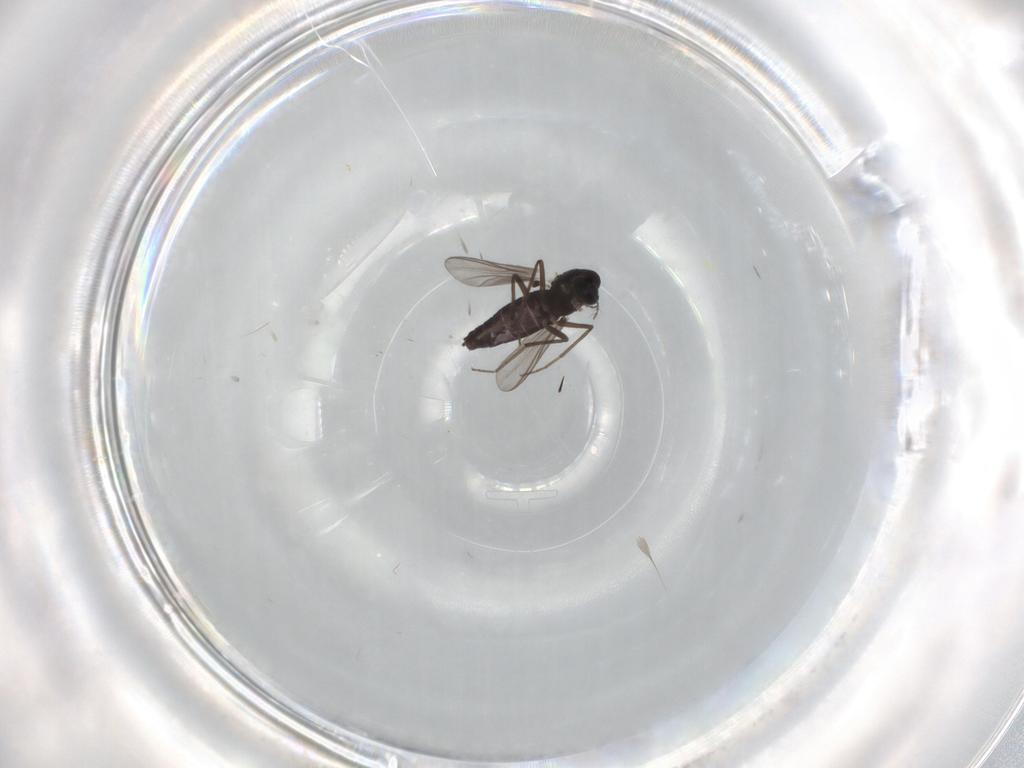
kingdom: Animalia
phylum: Arthropoda
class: Insecta
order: Diptera
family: Chironomidae
